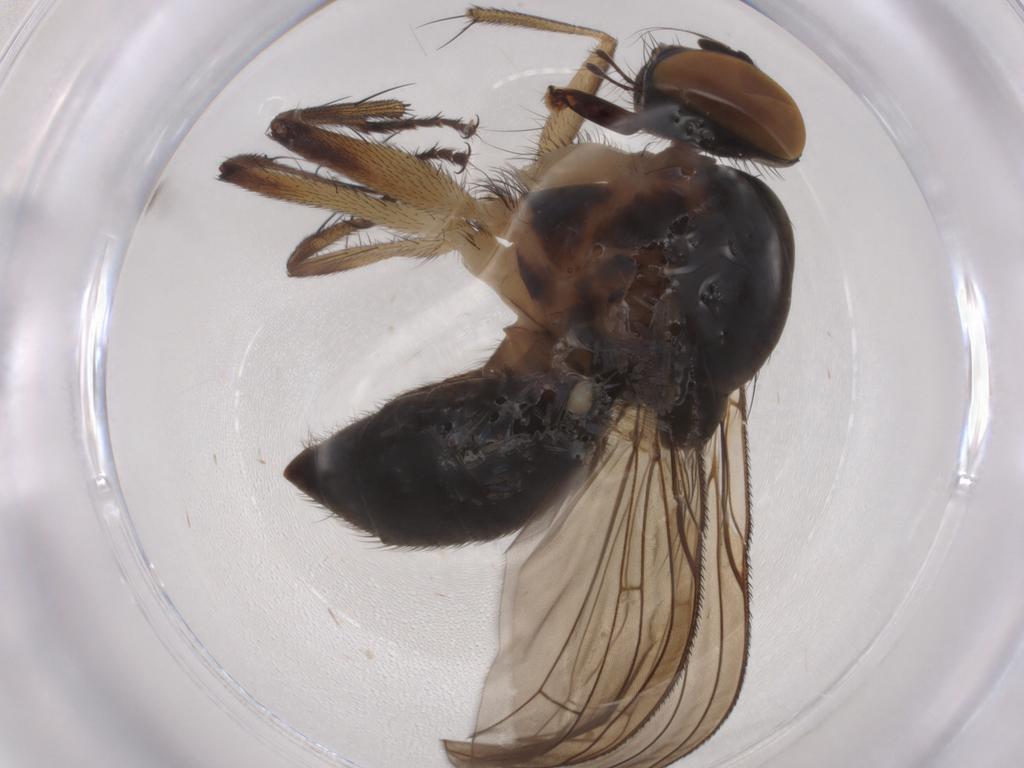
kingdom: Animalia
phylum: Arthropoda
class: Insecta
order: Diptera
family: Muscidae
